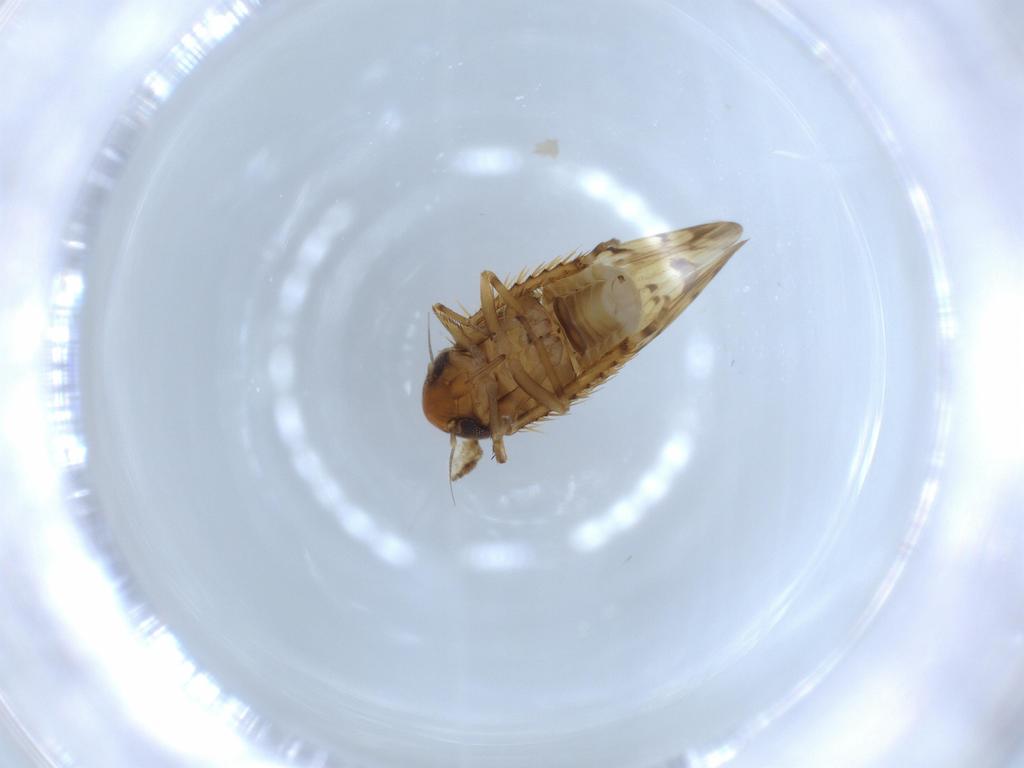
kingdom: Animalia
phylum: Arthropoda
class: Insecta
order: Hemiptera
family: Cicadellidae
